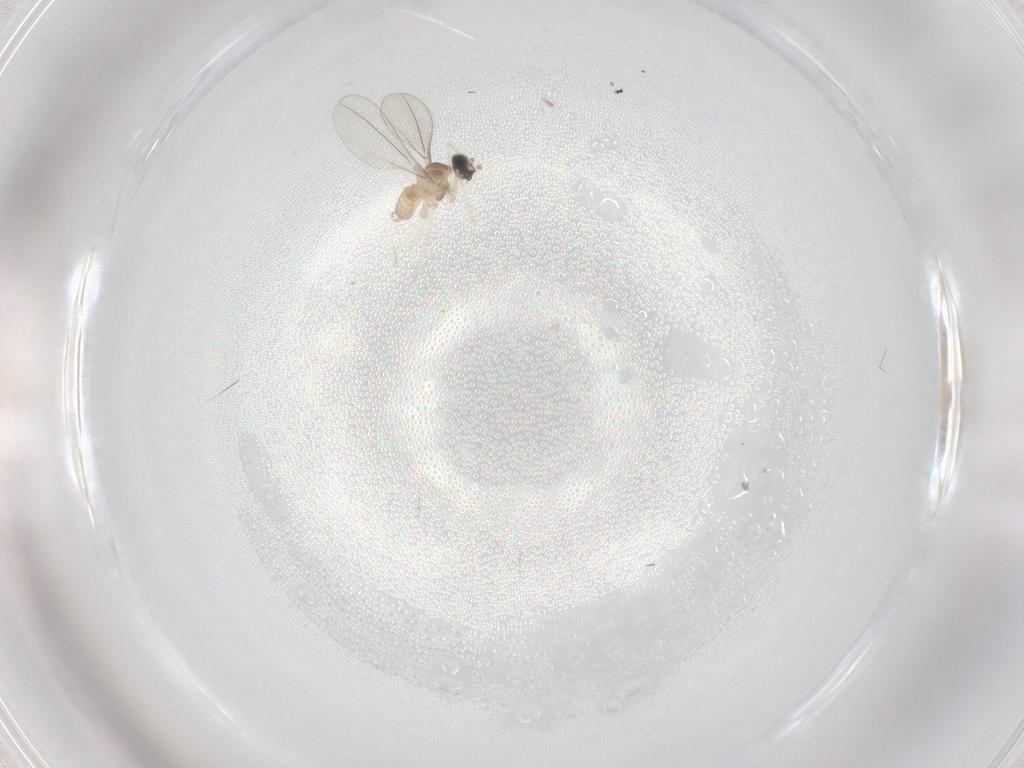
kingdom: Animalia
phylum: Arthropoda
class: Insecta
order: Diptera
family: Cecidomyiidae
